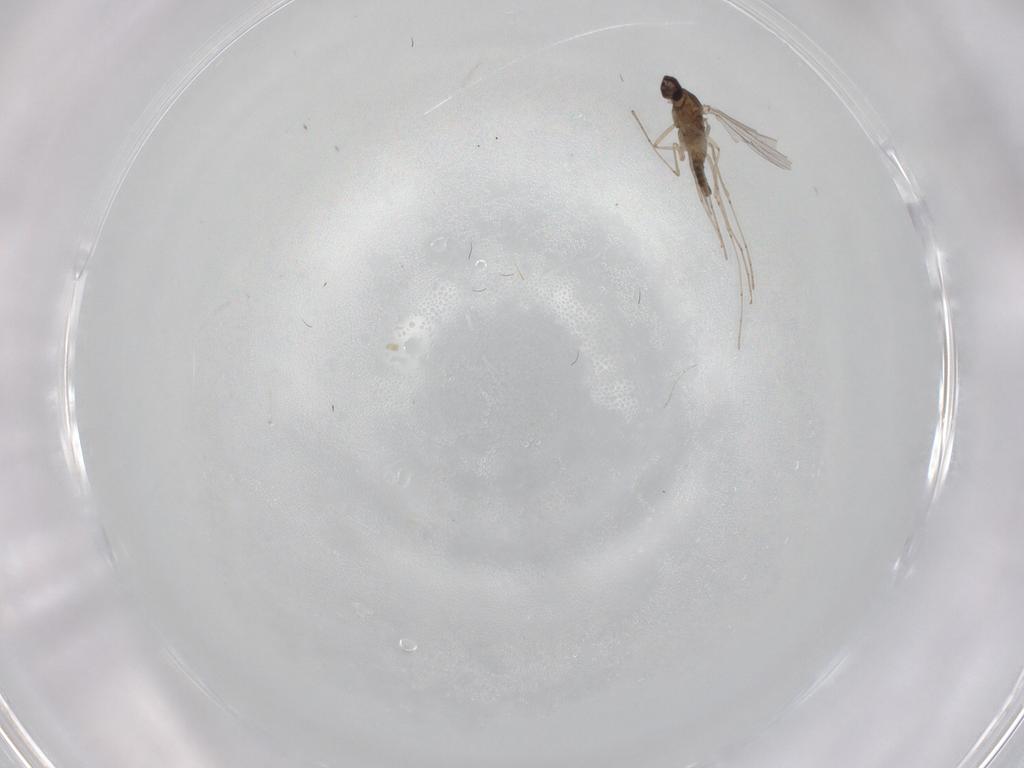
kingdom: Animalia
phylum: Arthropoda
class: Insecta
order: Diptera
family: Cecidomyiidae
